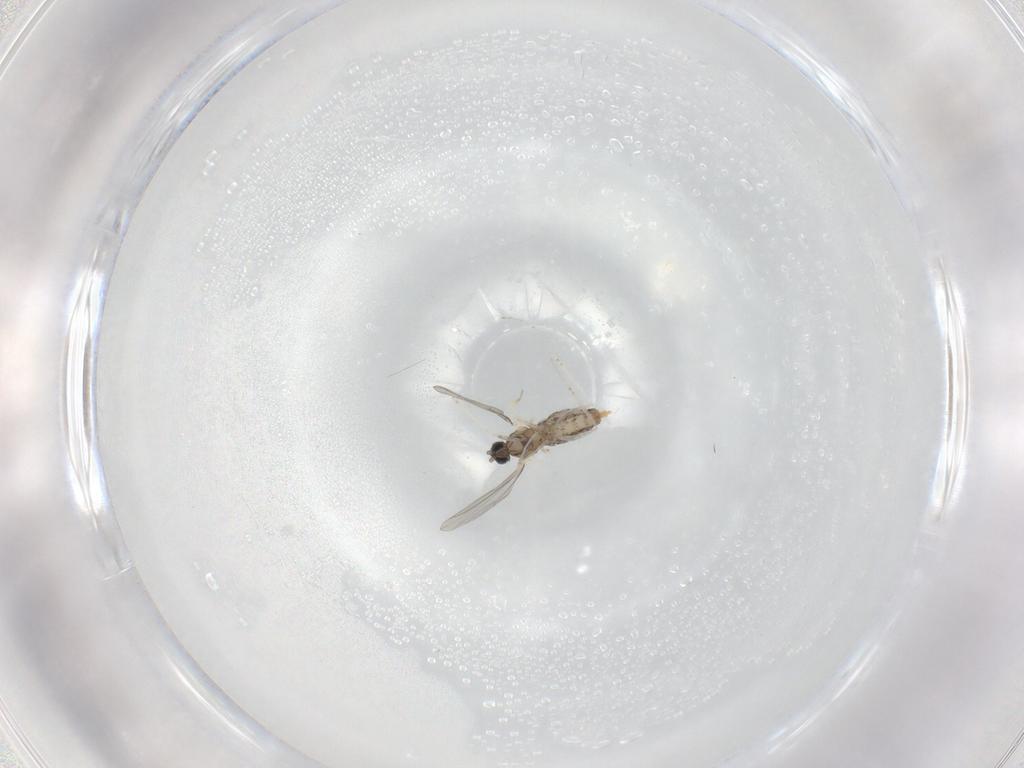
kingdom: Animalia
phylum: Arthropoda
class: Insecta
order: Diptera
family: Cecidomyiidae
